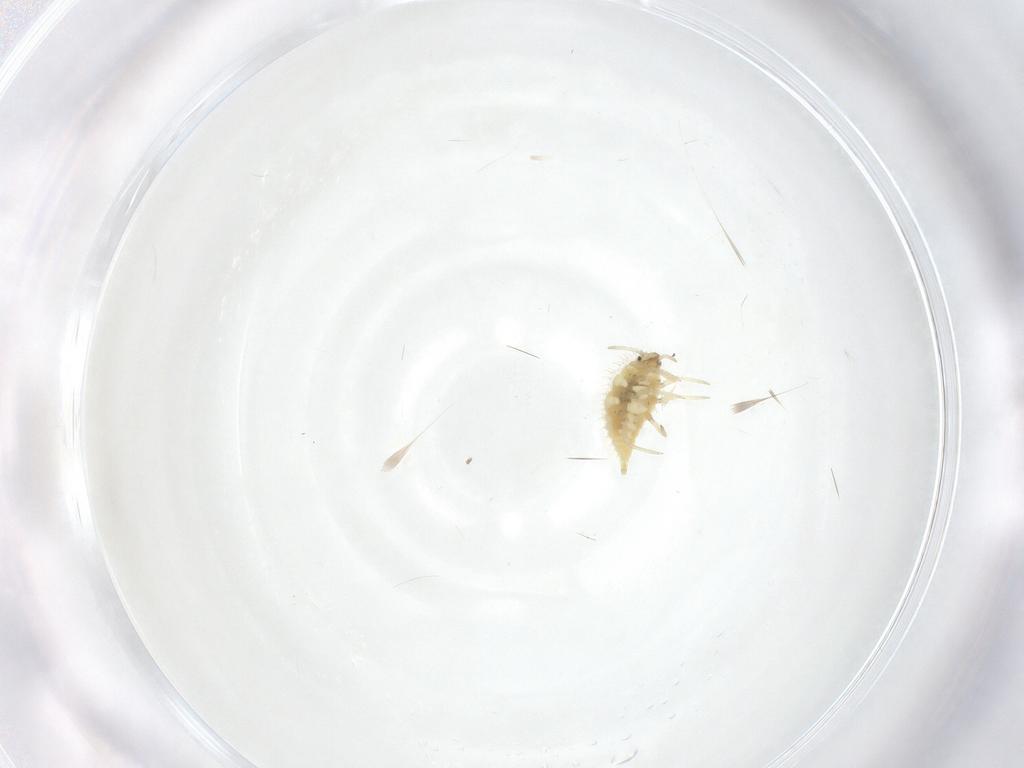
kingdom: Animalia
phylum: Arthropoda
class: Insecta
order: Neuroptera
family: Coniopterygidae
